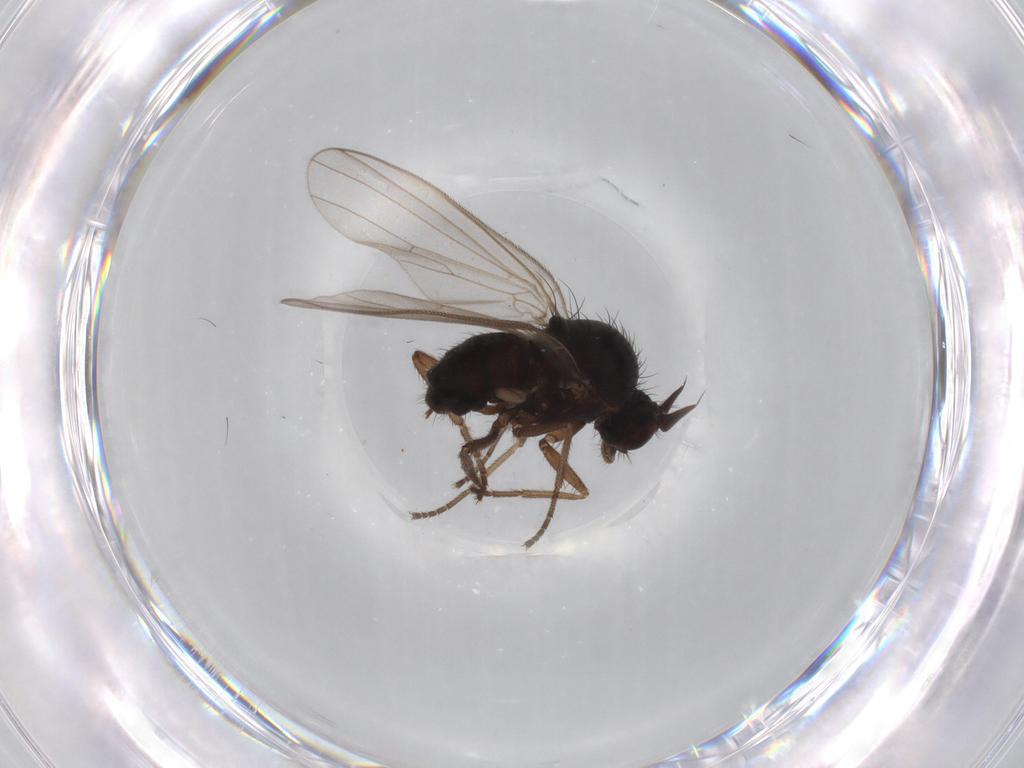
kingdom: Animalia
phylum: Arthropoda
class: Insecta
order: Diptera
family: Dolichopodidae
